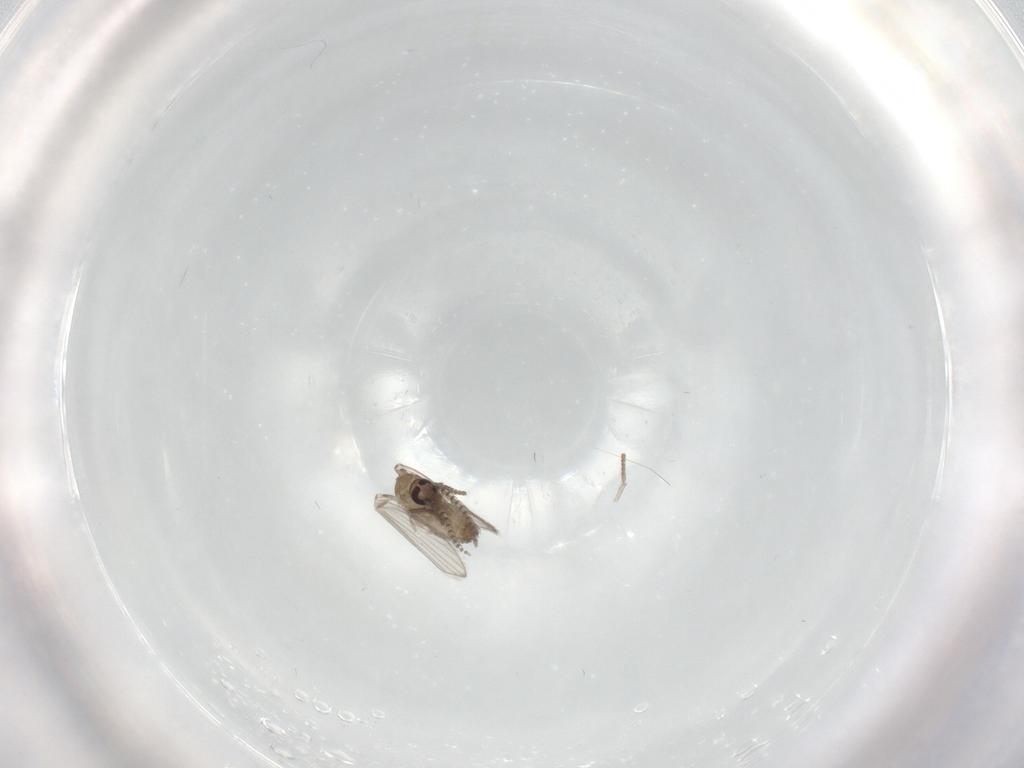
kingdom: Animalia
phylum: Arthropoda
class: Insecta
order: Diptera
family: Psychodidae
